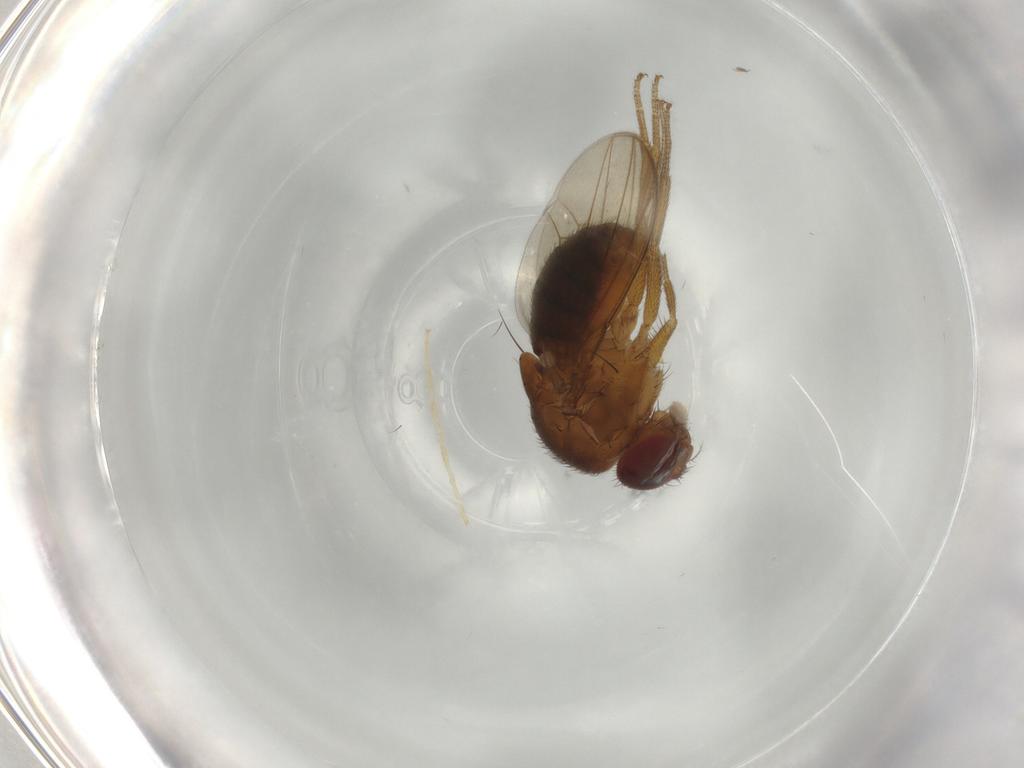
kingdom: Animalia
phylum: Arthropoda
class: Insecta
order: Diptera
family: Drosophilidae
